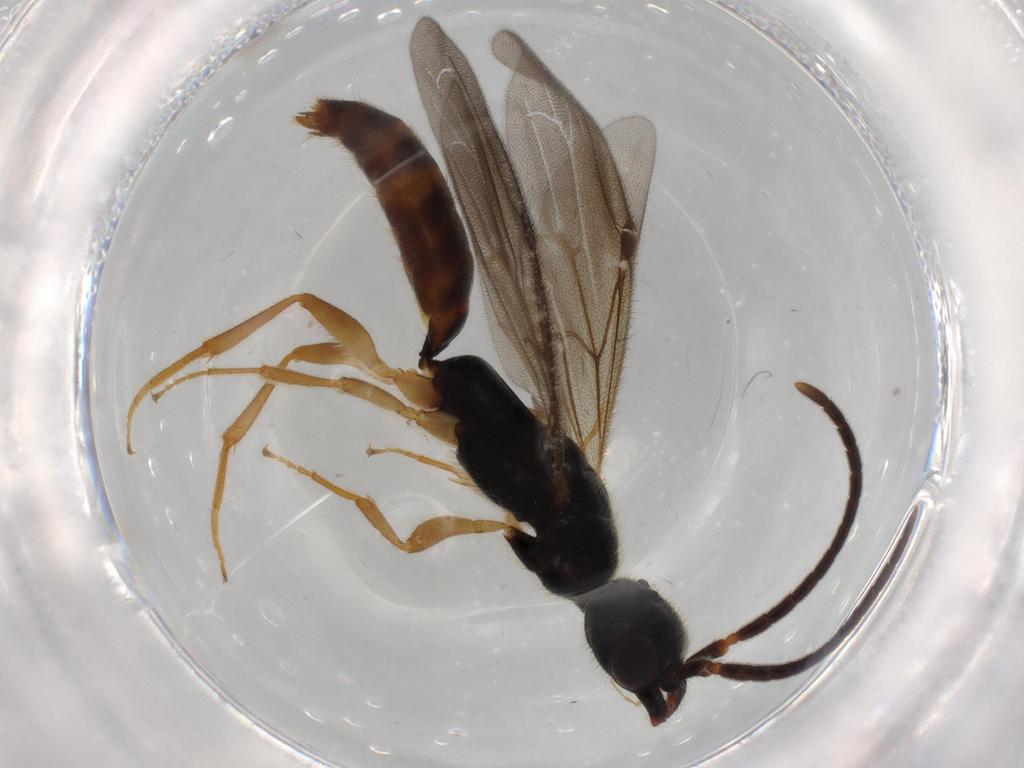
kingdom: Animalia
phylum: Arthropoda
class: Insecta
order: Hymenoptera
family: Bethylidae
